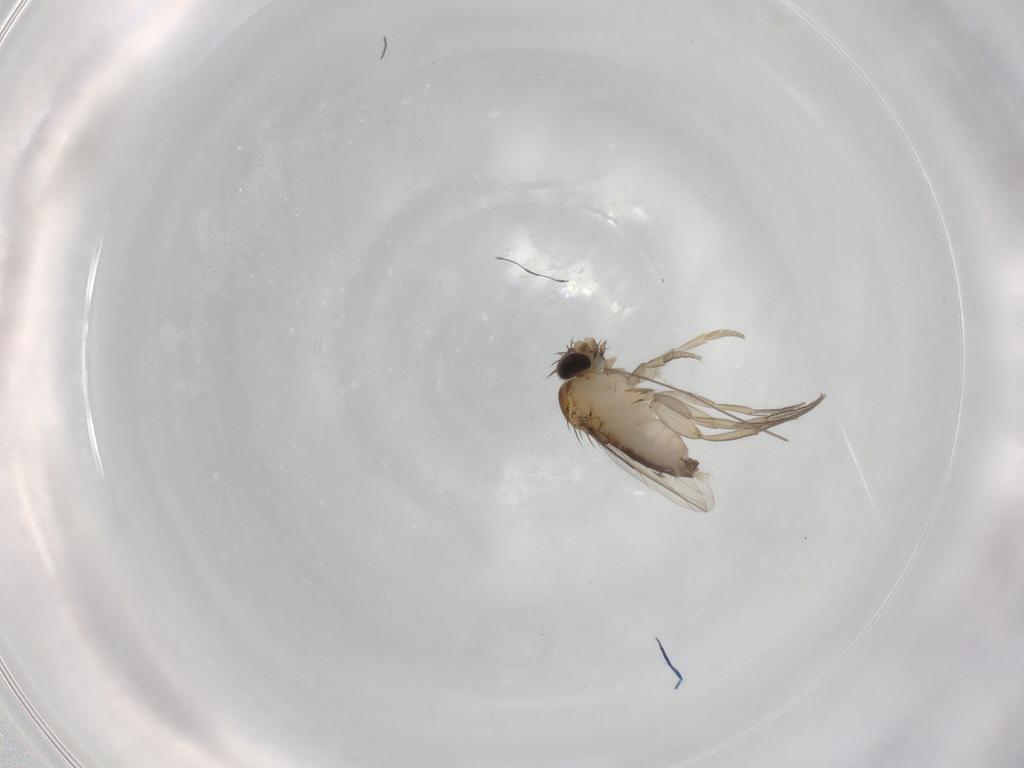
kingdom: Animalia
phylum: Arthropoda
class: Insecta
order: Diptera
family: Phoridae
